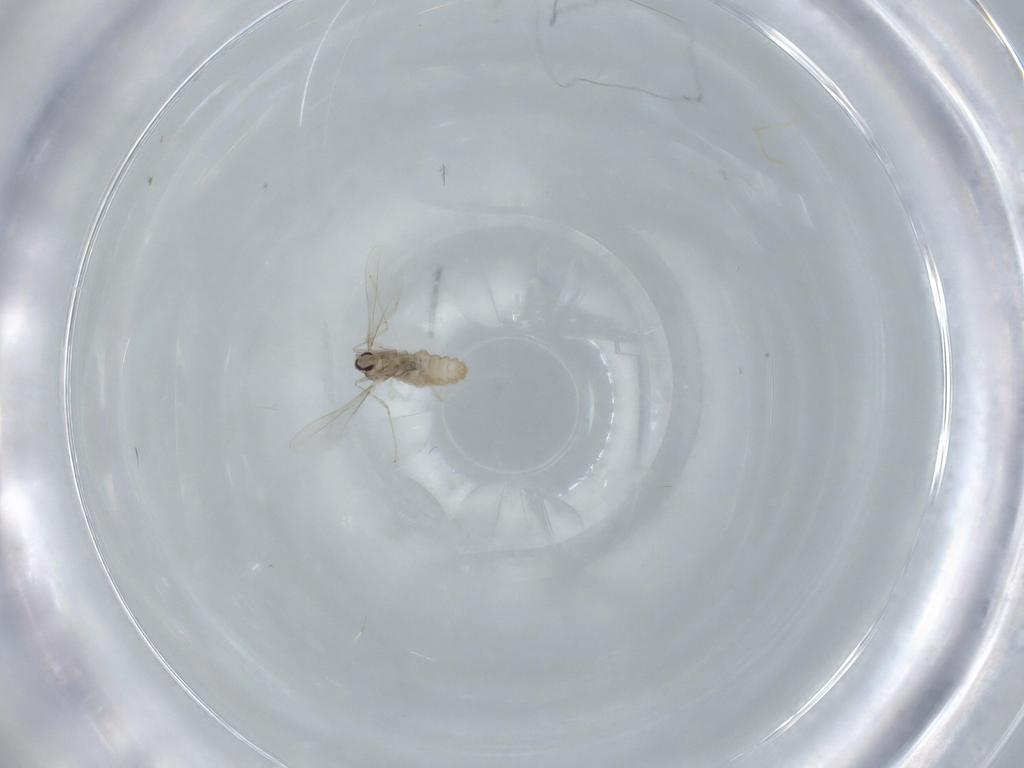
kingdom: Animalia
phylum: Arthropoda
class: Insecta
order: Diptera
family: Cecidomyiidae
